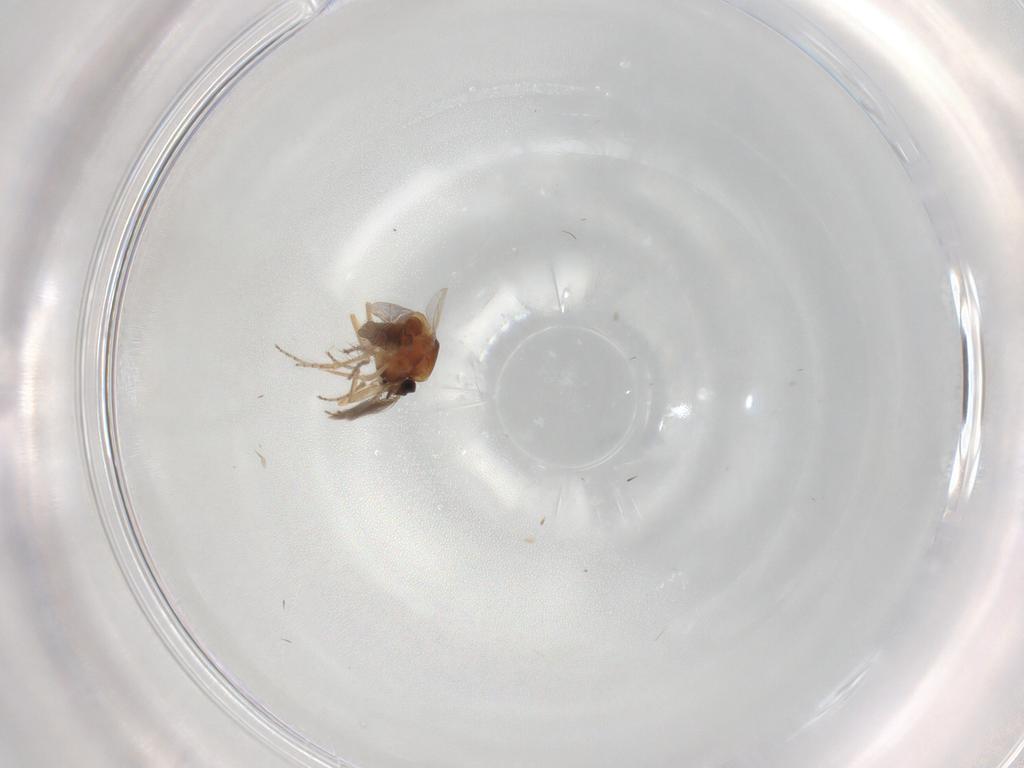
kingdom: Animalia
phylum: Arthropoda
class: Insecta
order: Diptera
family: Ceratopogonidae
